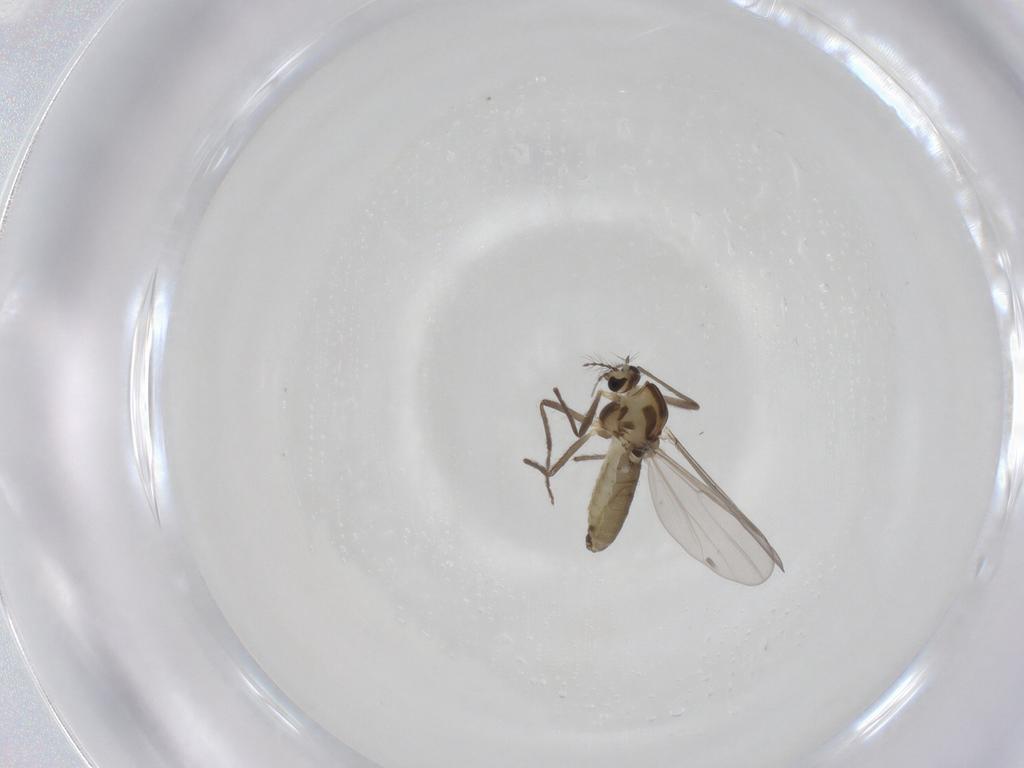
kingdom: Animalia
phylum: Arthropoda
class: Insecta
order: Diptera
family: Chironomidae
